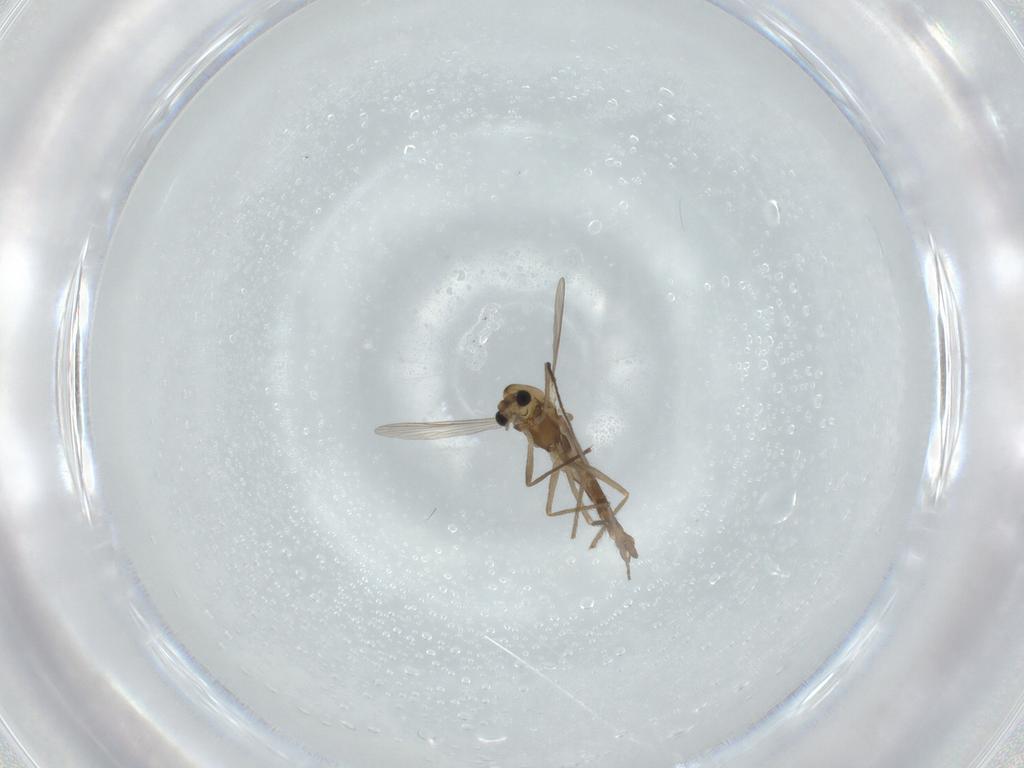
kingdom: Animalia
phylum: Arthropoda
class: Insecta
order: Diptera
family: Chironomidae
